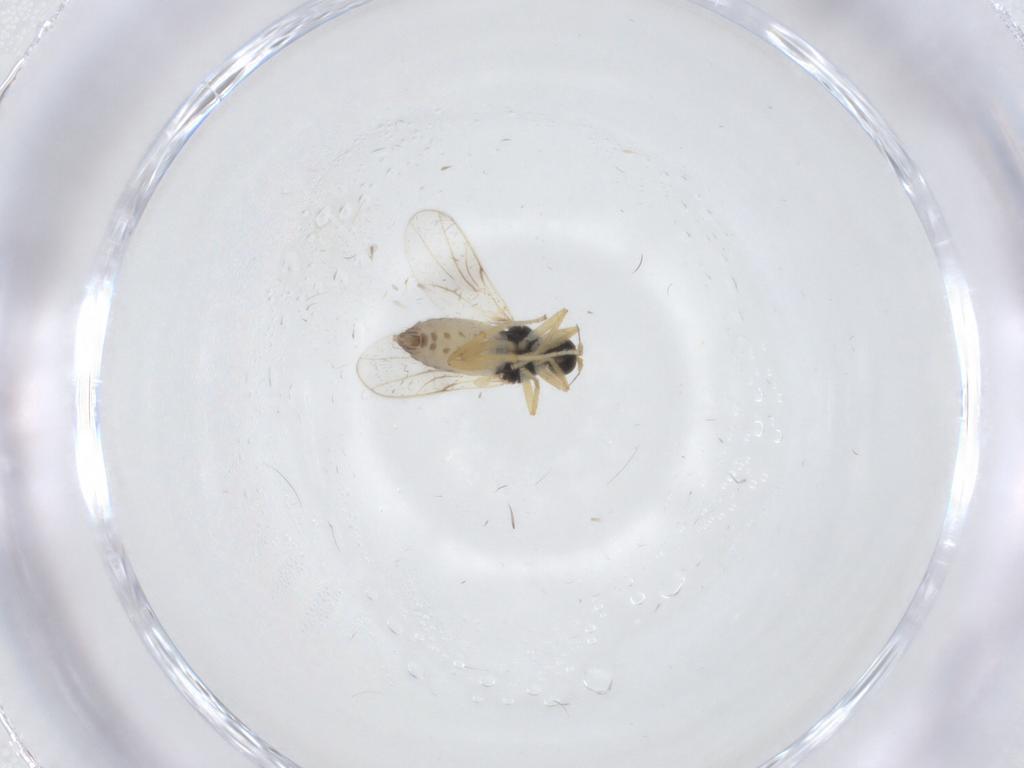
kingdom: Animalia
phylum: Arthropoda
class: Insecta
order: Diptera
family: Hybotidae
